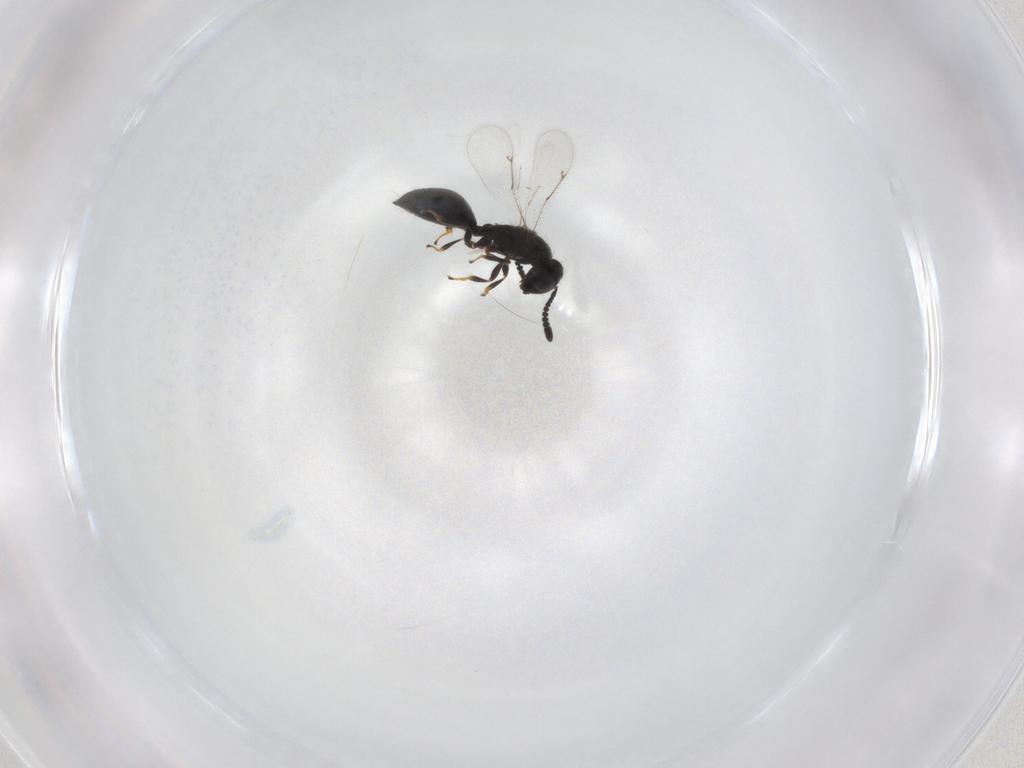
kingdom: Animalia
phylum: Arthropoda
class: Insecta
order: Hymenoptera
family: Spalangiidae
